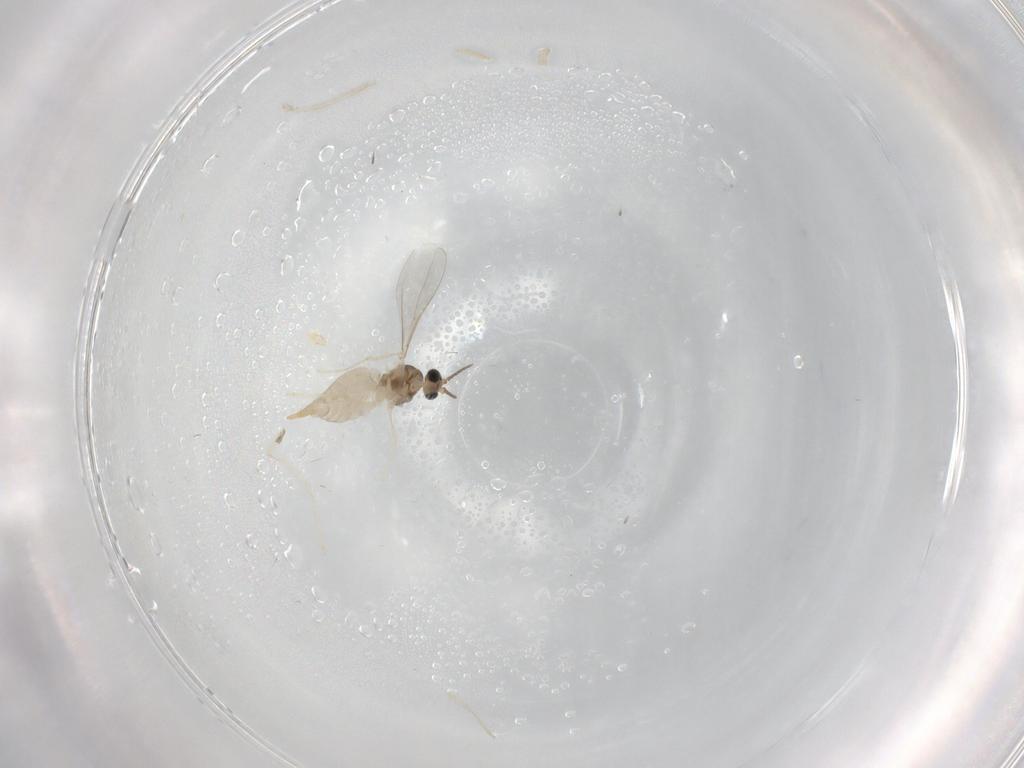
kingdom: Animalia
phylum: Arthropoda
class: Insecta
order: Diptera
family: Cecidomyiidae
